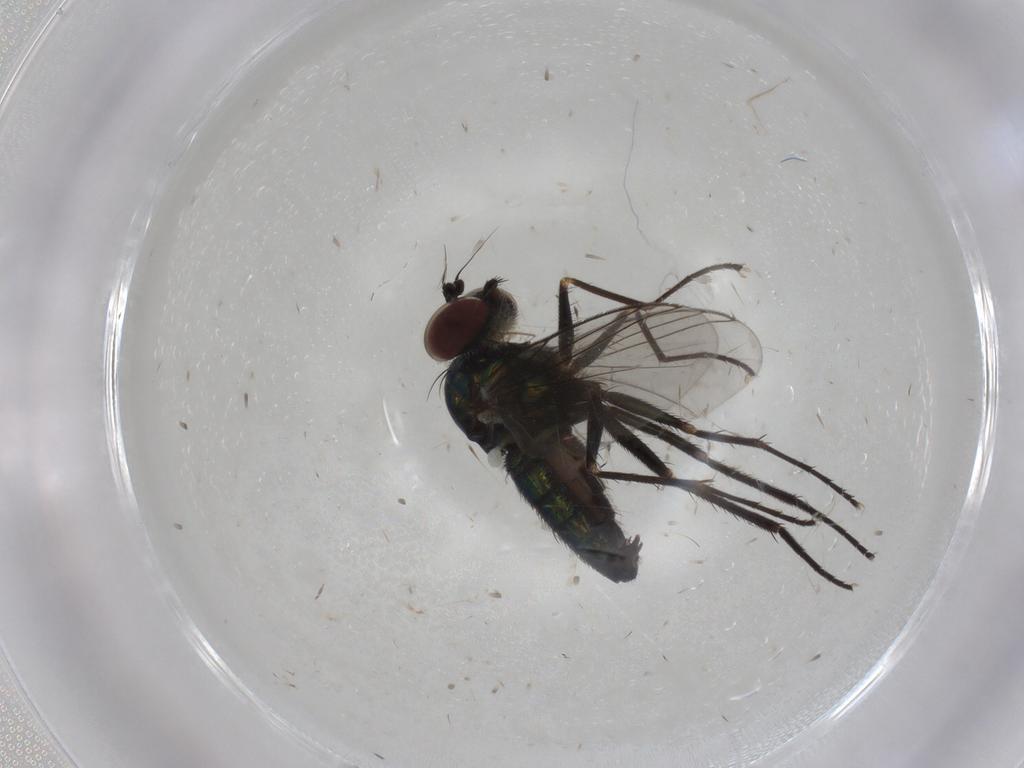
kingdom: Animalia
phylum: Arthropoda
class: Insecta
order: Diptera
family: Dolichopodidae
